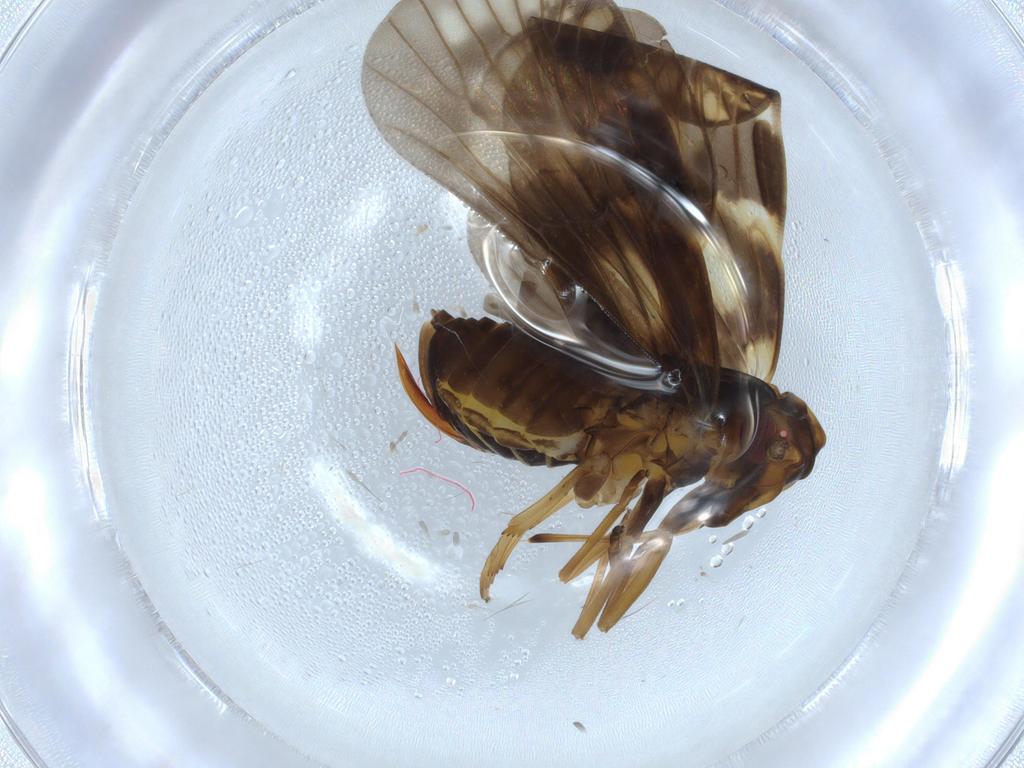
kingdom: Animalia
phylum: Arthropoda
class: Insecta
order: Hemiptera
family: Cixiidae
